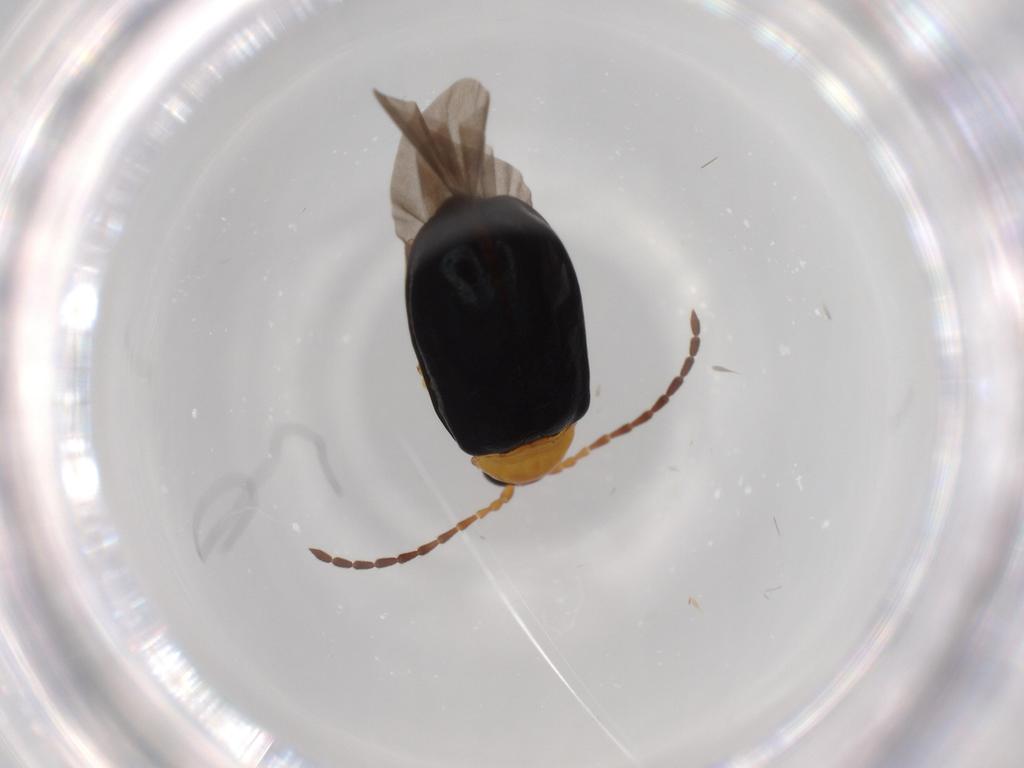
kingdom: Animalia
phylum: Arthropoda
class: Insecta
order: Coleoptera
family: Chrysomelidae
